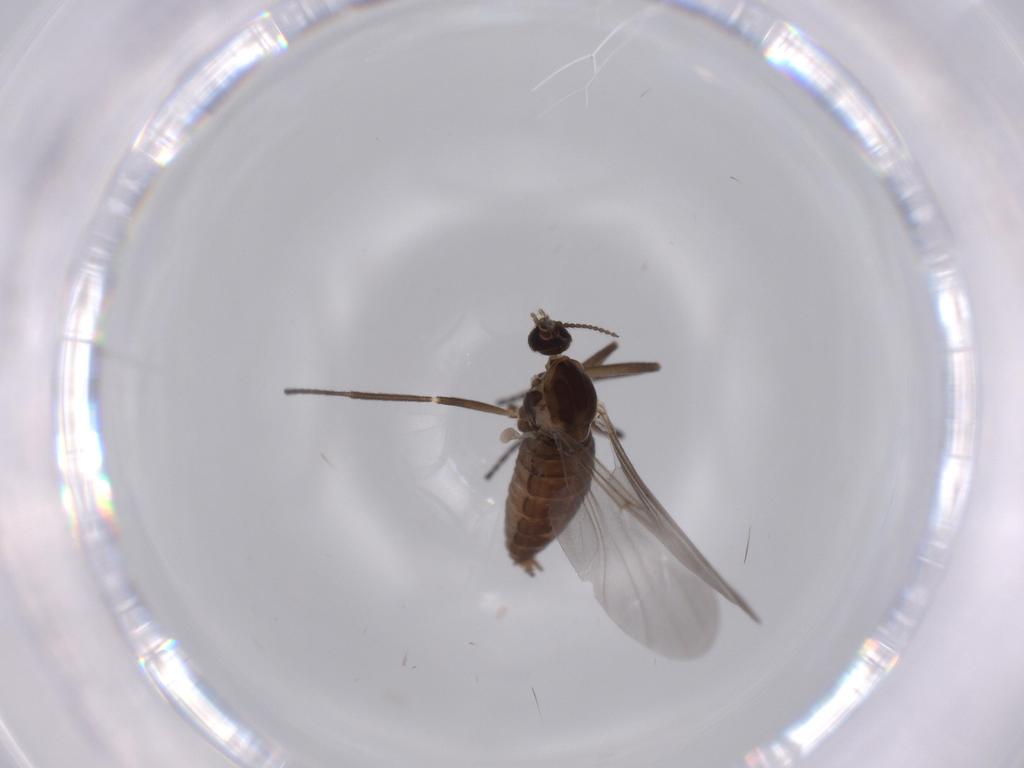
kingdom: Animalia
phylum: Arthropoda
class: Insecta
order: Diptera
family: Cecidomyiidae
